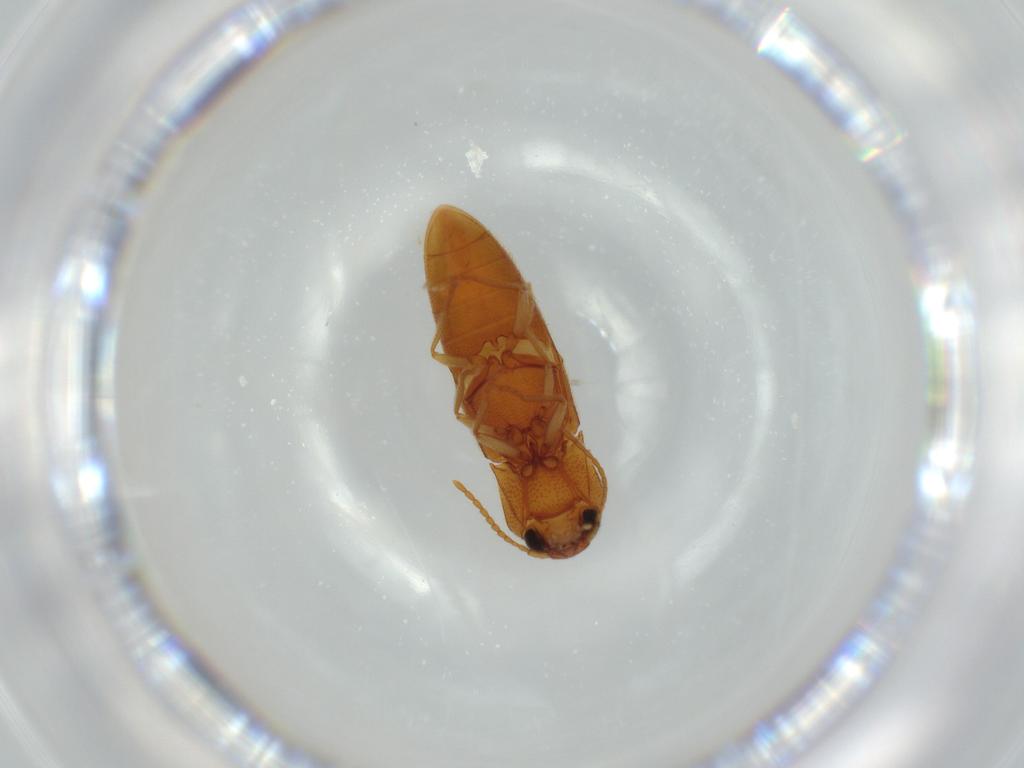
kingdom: Animalia
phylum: Arthropoda
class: Insecta
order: Coleoptera
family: Elateridae
